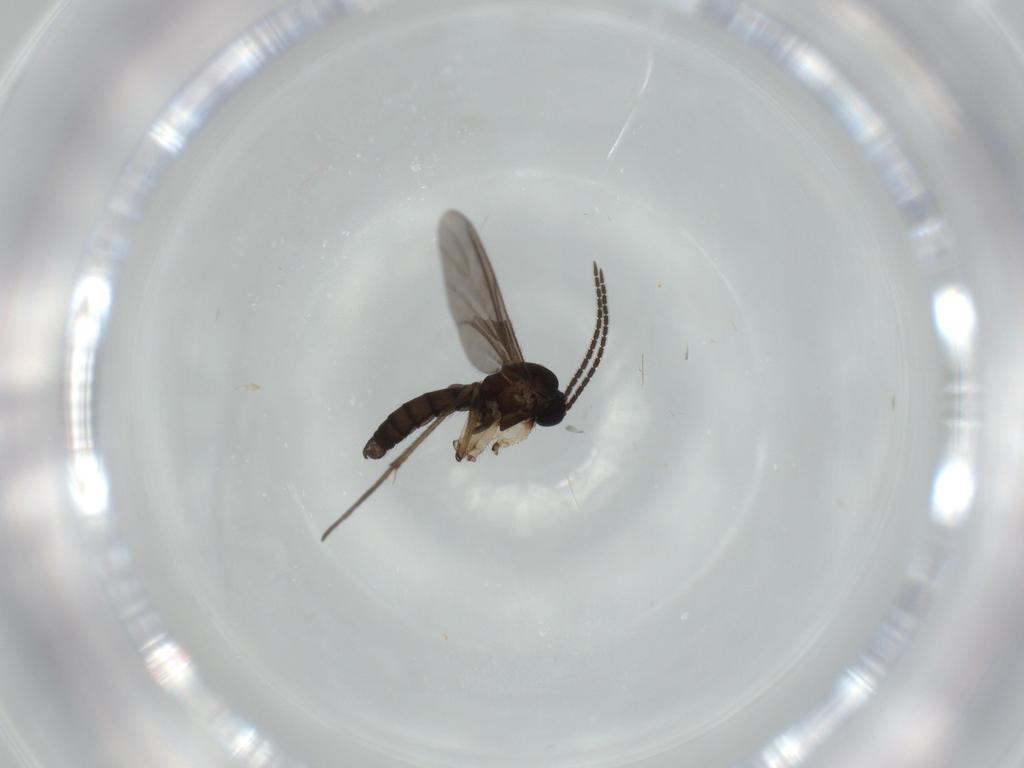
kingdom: Animalia
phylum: Arthropoda
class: Insecta
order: Diptera
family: Sciaridae
